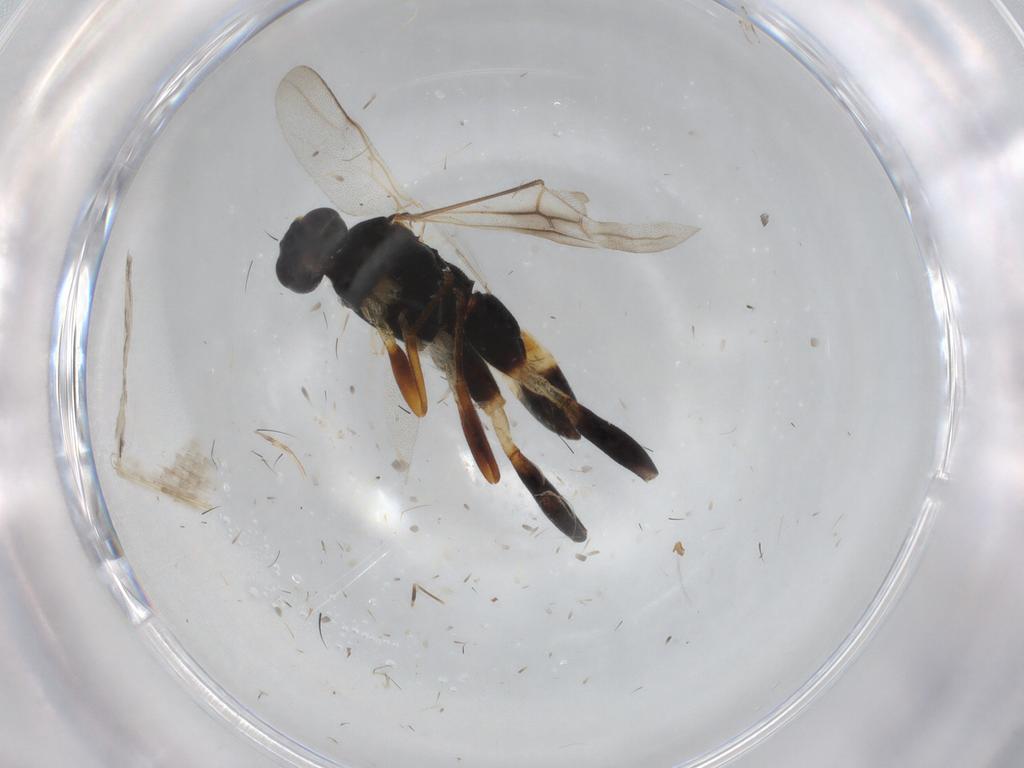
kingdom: Animalia
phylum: Arthropoda
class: Insecta
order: Hymenoptera
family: Braconidae
